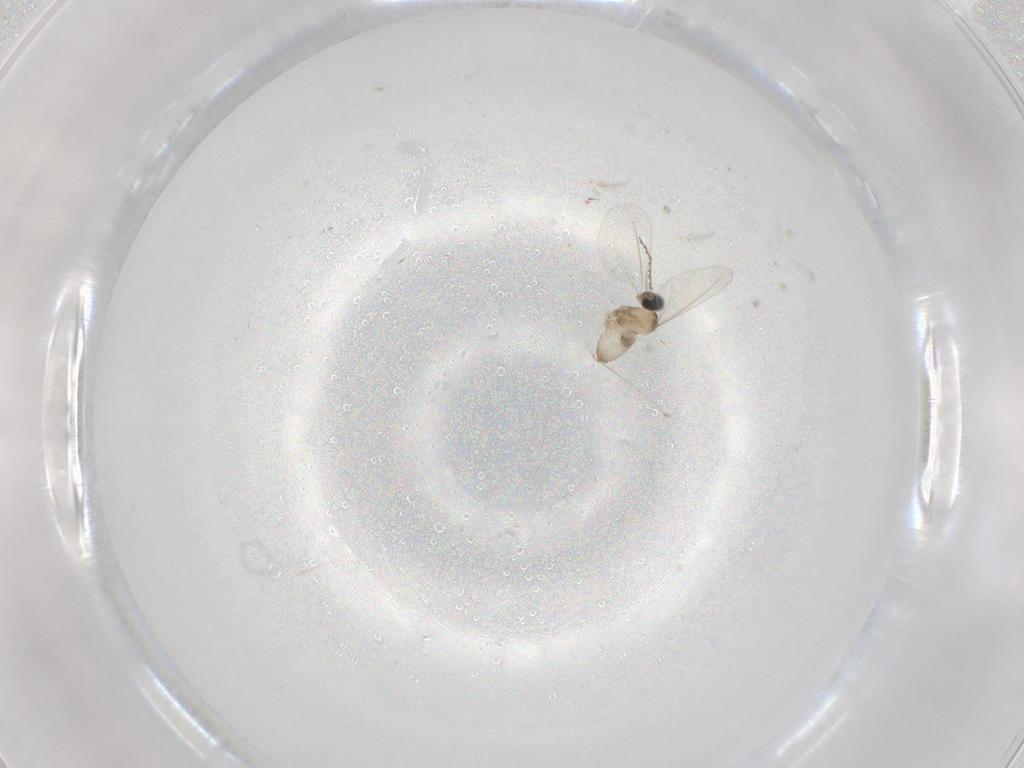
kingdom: Animalia
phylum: Arthropoda
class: Insecta
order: Diptera
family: Cecidomyiidae
